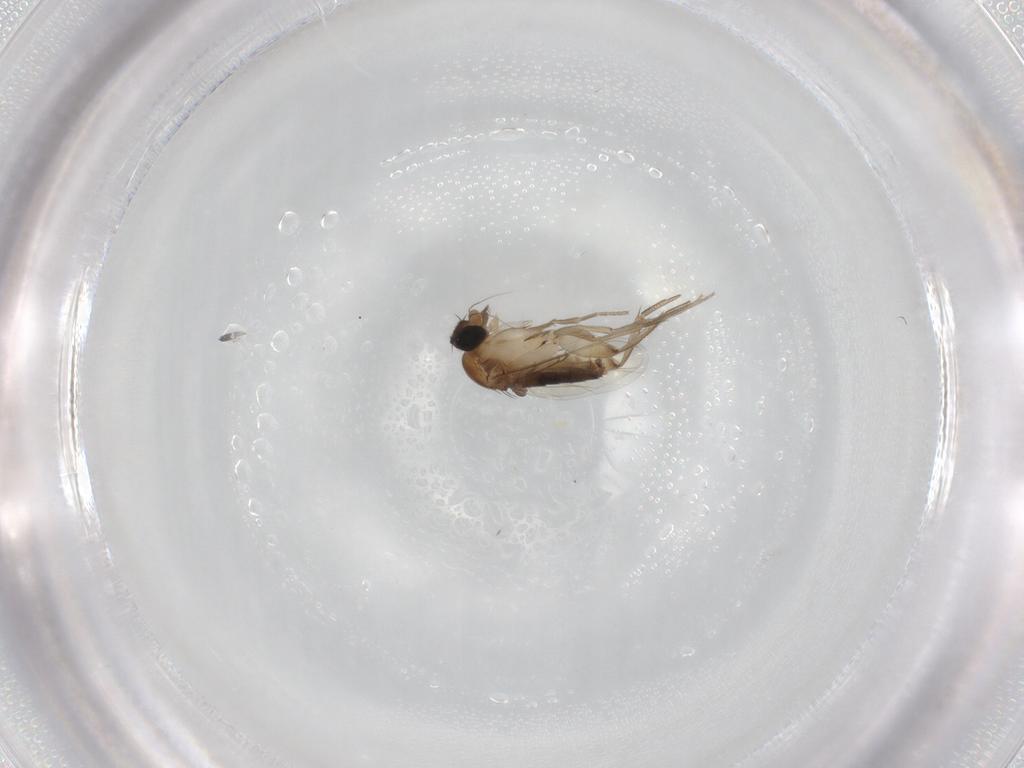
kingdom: Animalia
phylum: Arthropoda
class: Insecta
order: Diptera
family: Phoridae
